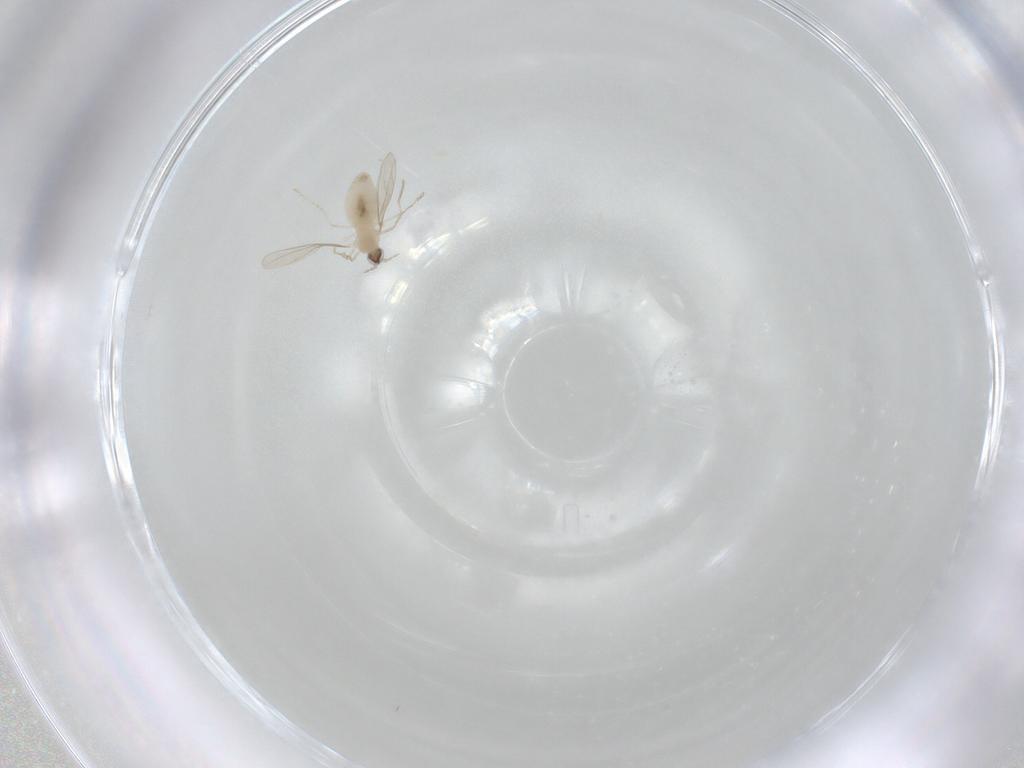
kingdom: Animalia
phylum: Arthropoda
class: Insecta
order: Diptera
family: Cecidomyiidae
